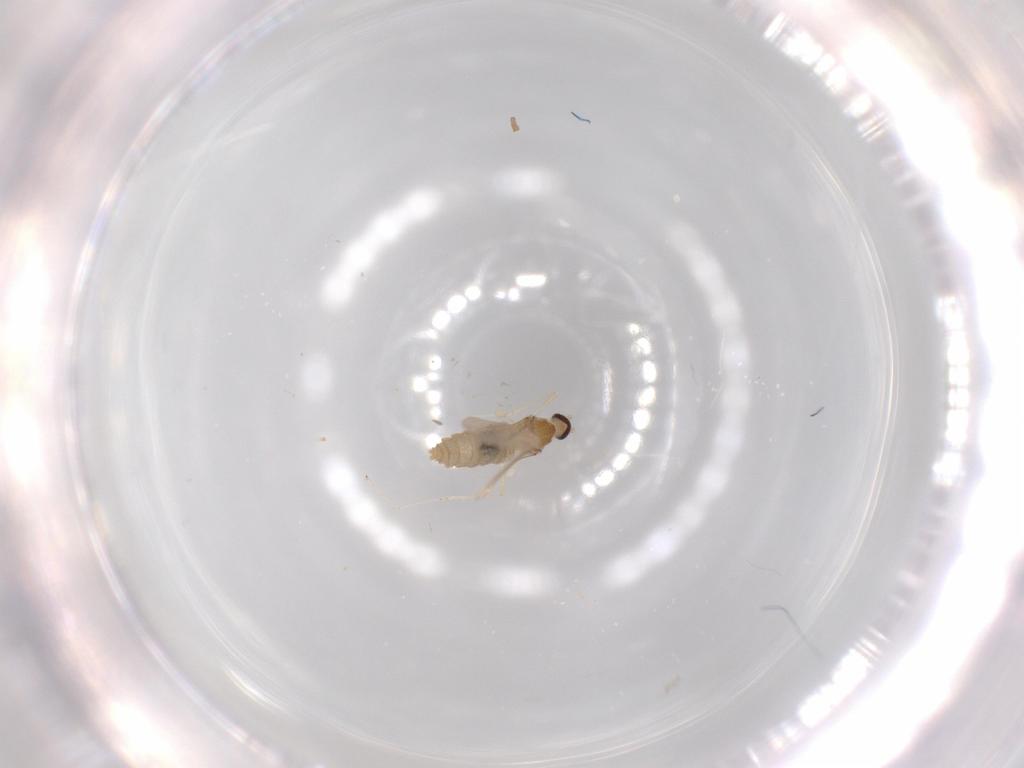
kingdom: Animalia
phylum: Arthropoda
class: Insecta
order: Diptera
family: Cecidomyiidae
